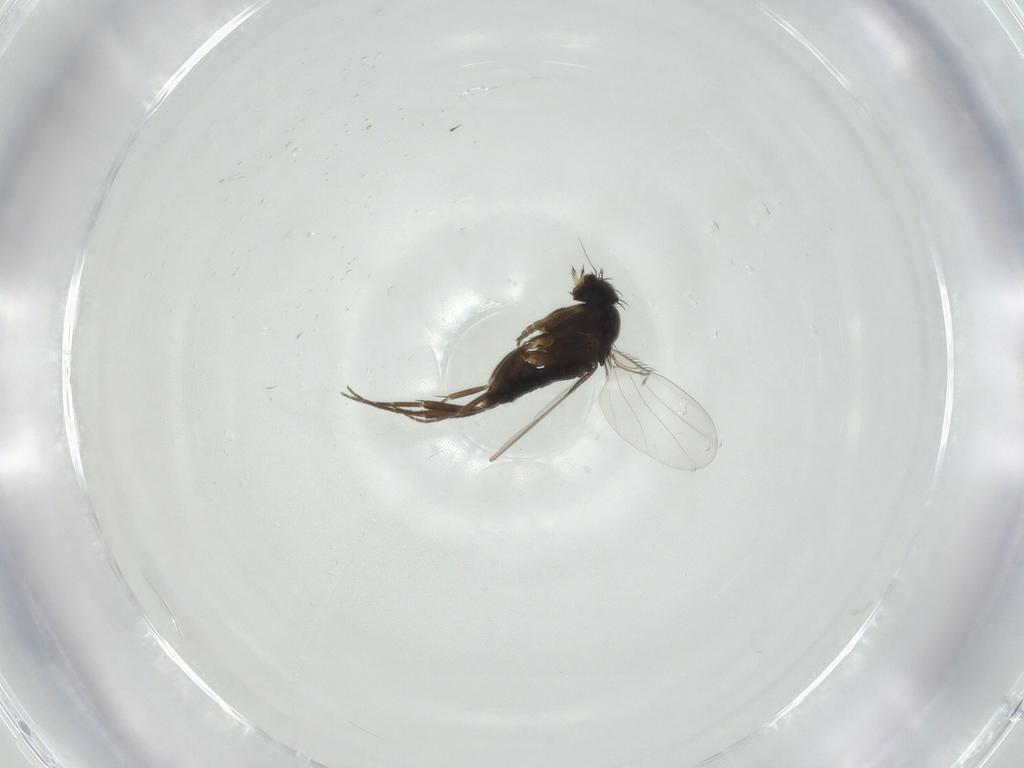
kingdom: Animalia
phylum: Arthropoda
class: Insecta
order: Diptera
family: Phoridae
